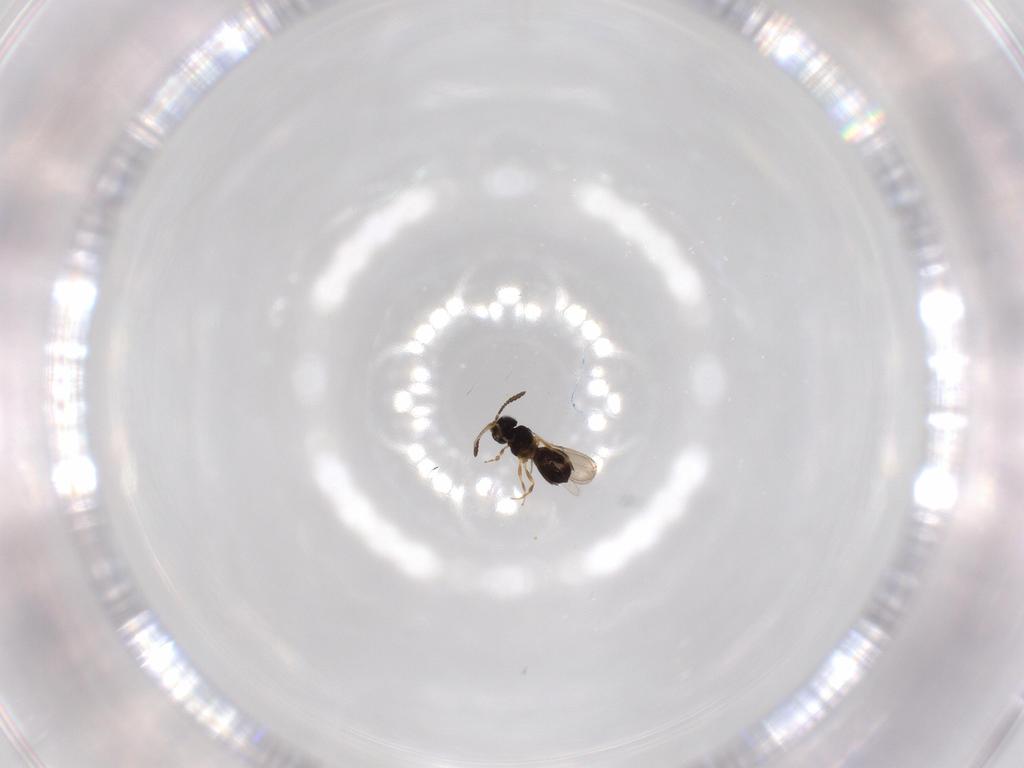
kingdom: Animalia
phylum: Arthropoda
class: Insecta
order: Hymenoptera
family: Scelionidae
